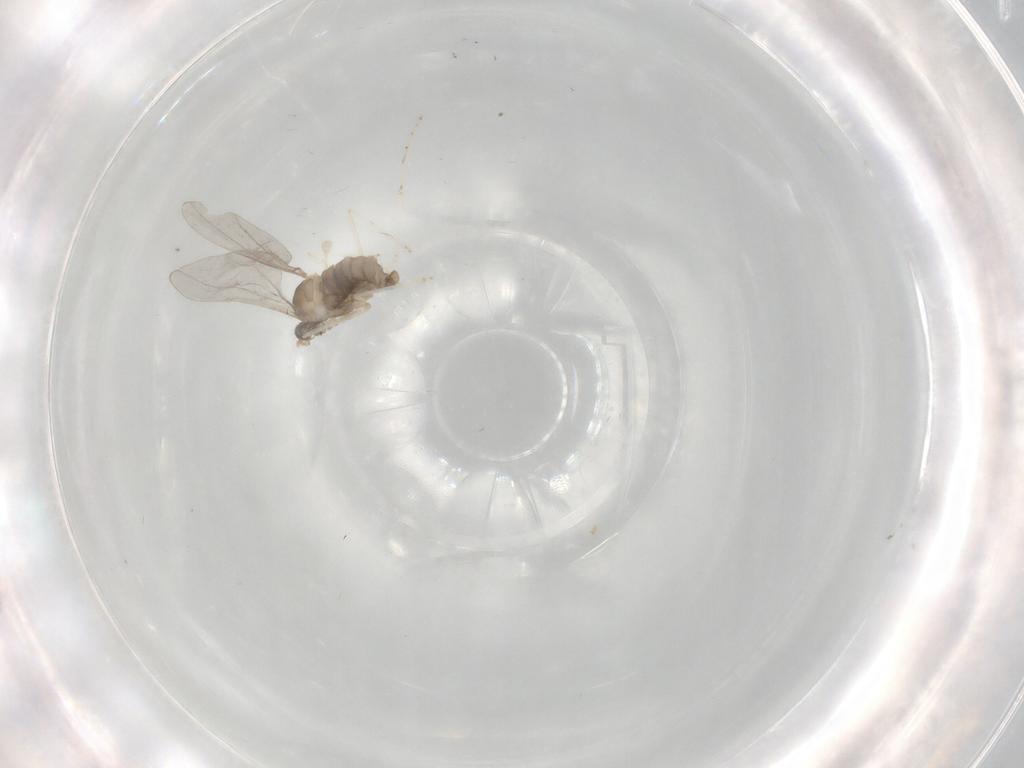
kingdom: Animalia
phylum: Arthropoda
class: Insecta
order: Diptera
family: Cecidomyiidae
